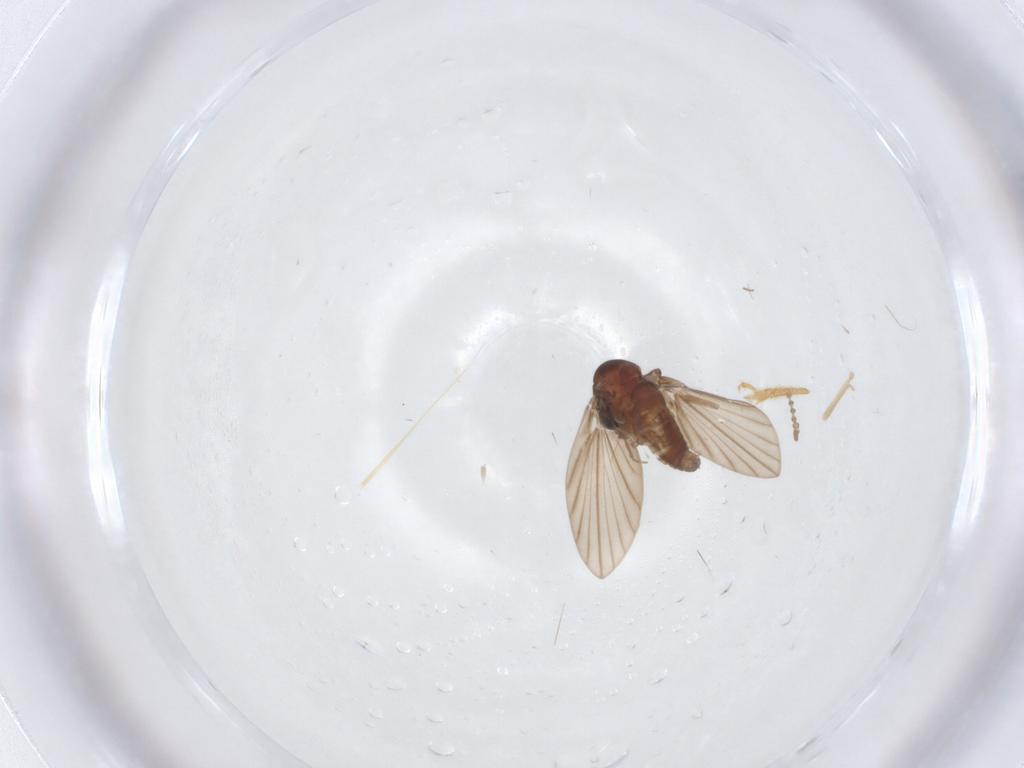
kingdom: Animalia
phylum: Arthropoda
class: Insecta
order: Diptera
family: Psychodidae
